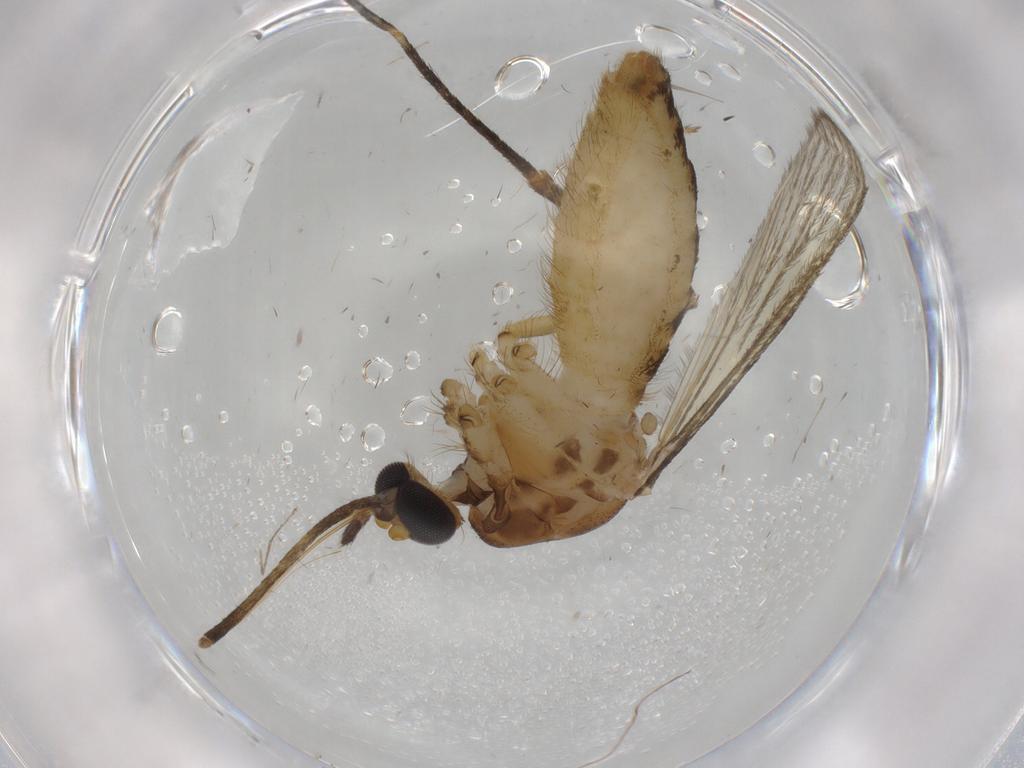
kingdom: Animalia
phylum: Arthropoda
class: Insecta
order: Diptera
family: Culicidae
